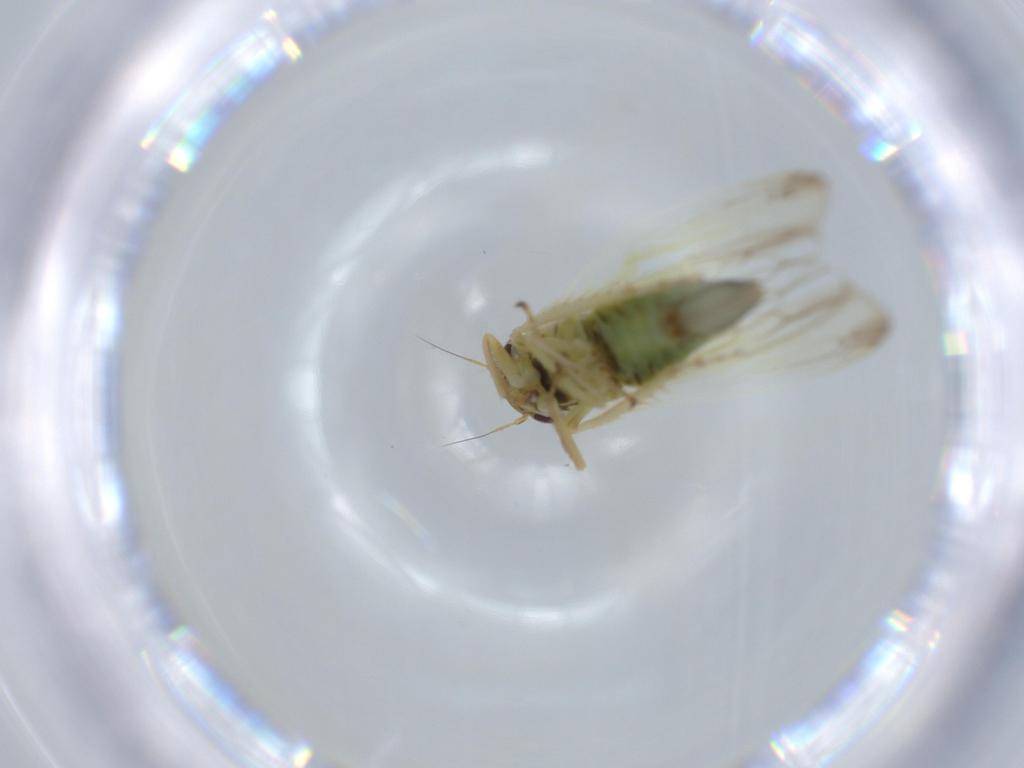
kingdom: Animalia
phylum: Arthropoda
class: Insecta
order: Hemiptera
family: Cicadellidae
